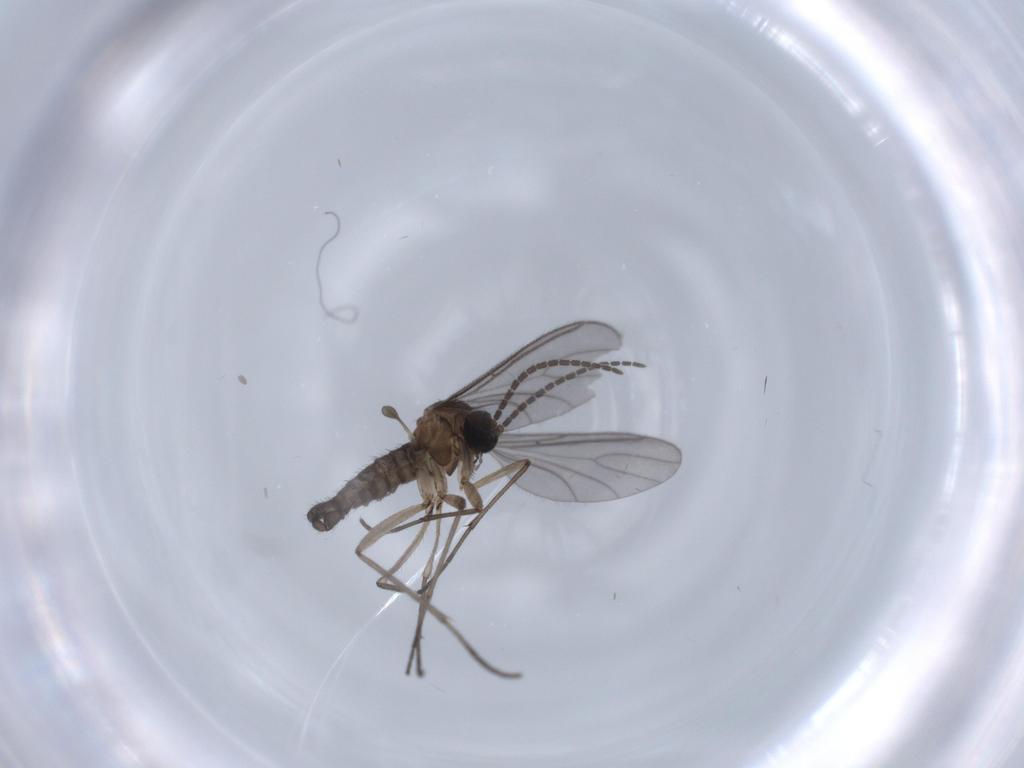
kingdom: Animalia
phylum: Arthropoda
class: Insecta
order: Diptera
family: Sciaridae
